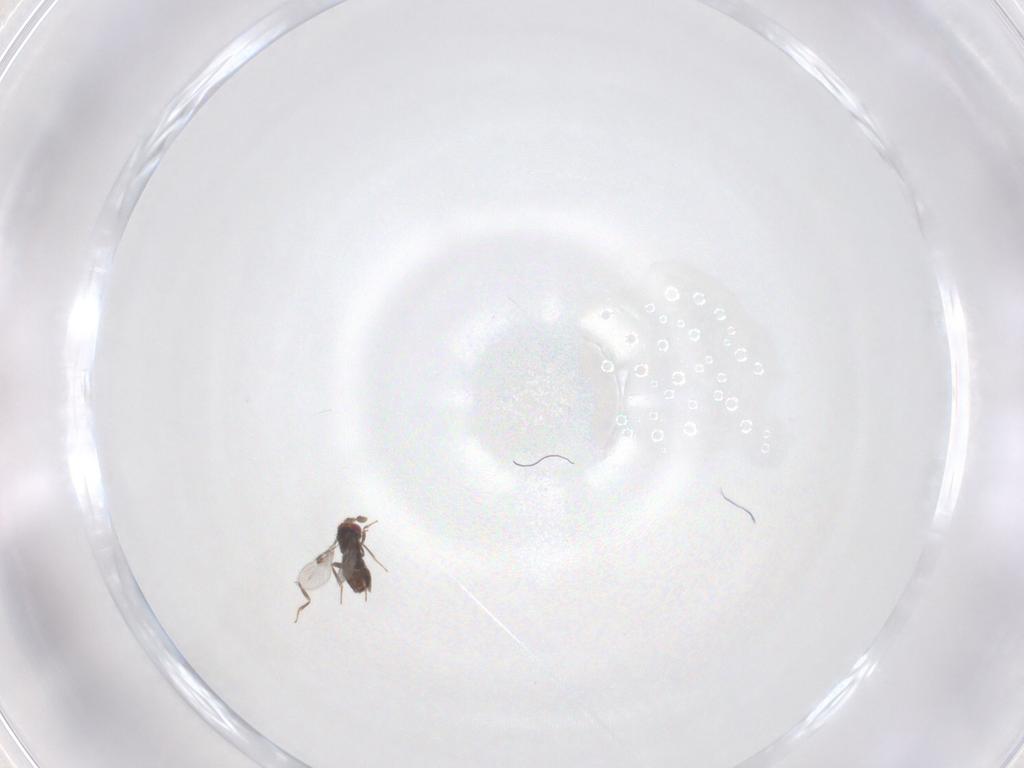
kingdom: Animalia
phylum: Arthropoda
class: Insecta
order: Hymenoptera
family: Trichogrammatidae
